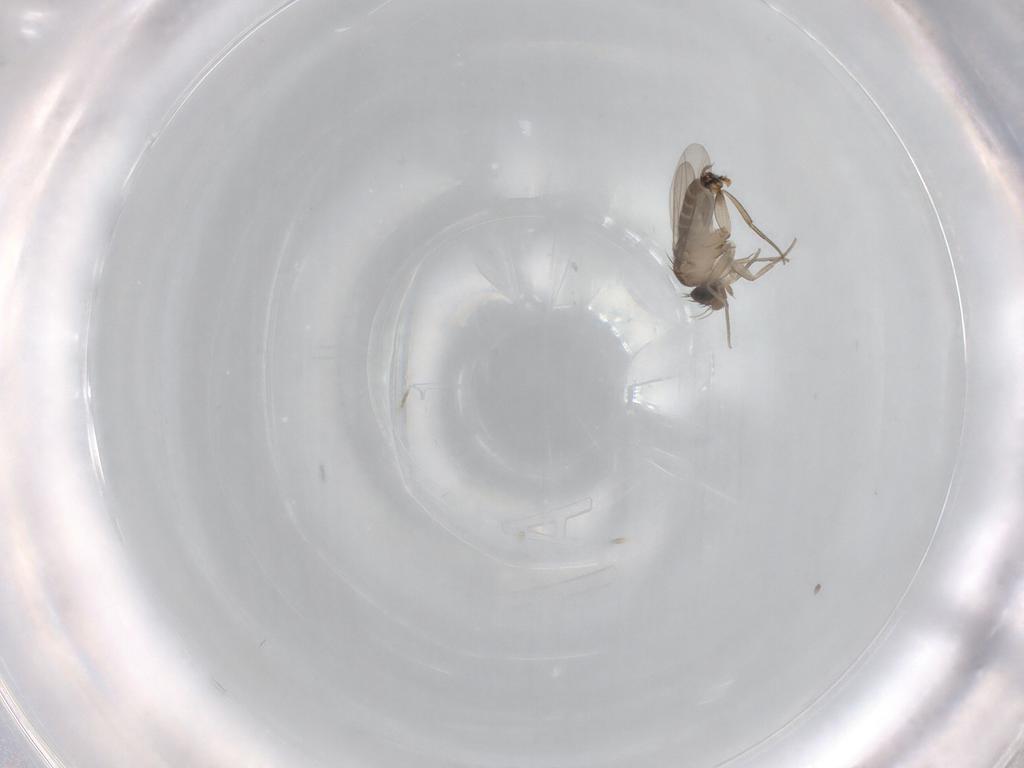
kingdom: Animalia
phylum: Arthropoda
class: Insecta
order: Diptera
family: Phoridae
